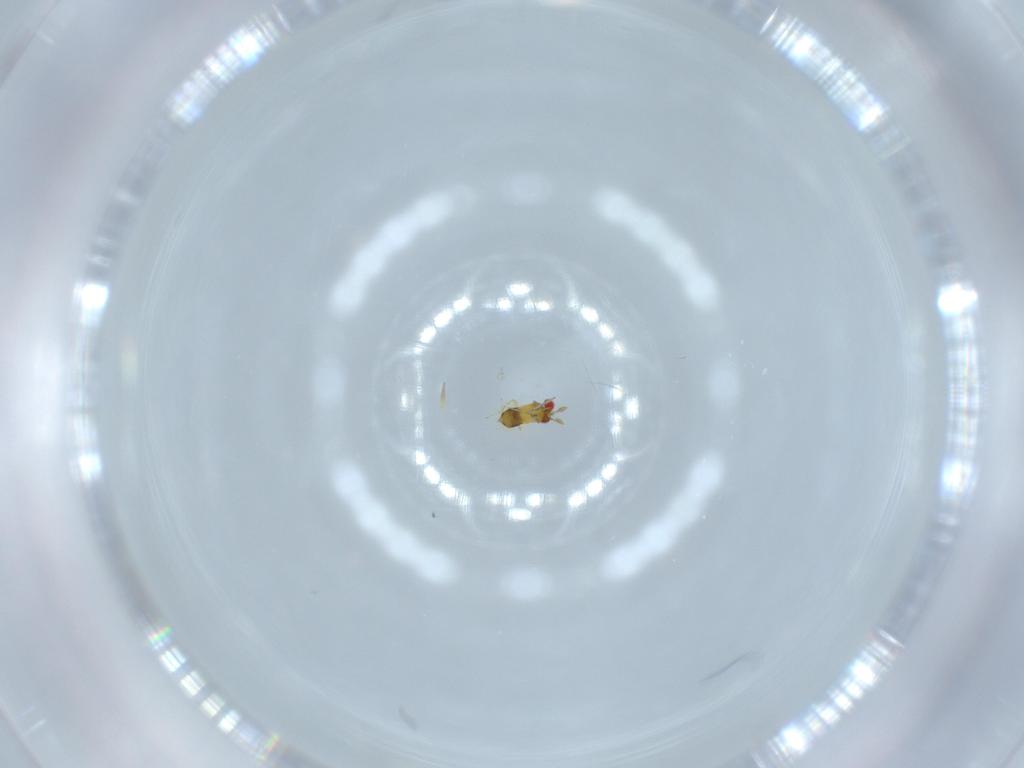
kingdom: Animalia
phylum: Arthropoda
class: Insecta
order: Hymenoptera
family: Trichogrammatidae
